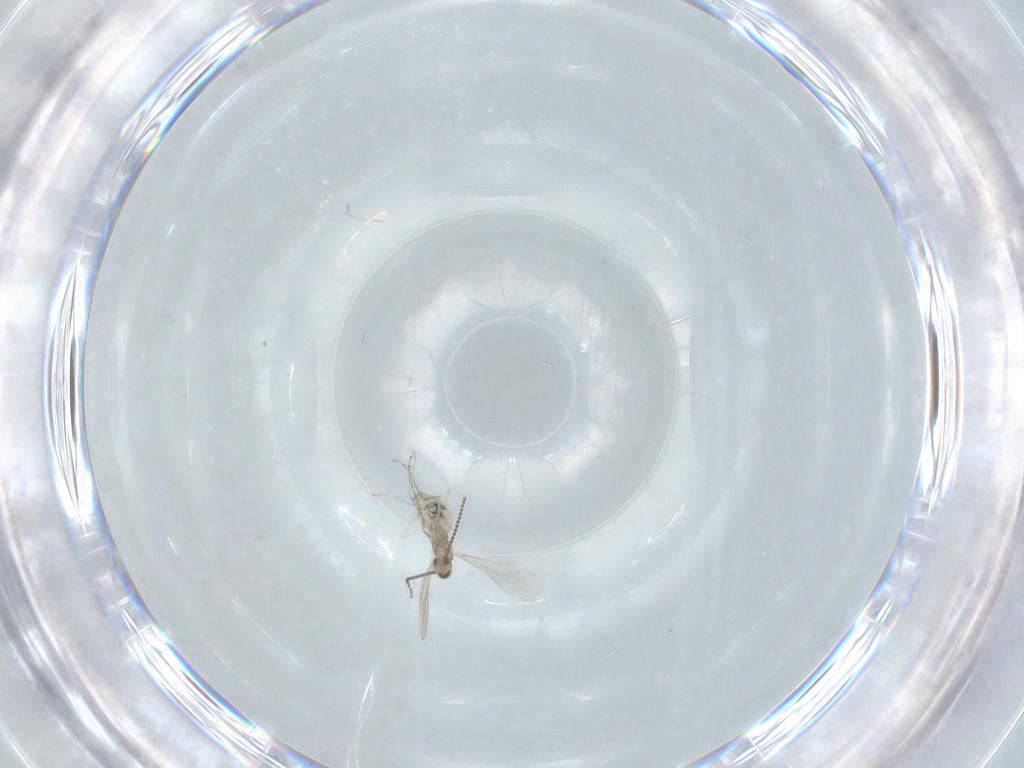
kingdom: Animalia
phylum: Arthropoda
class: Insecta
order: Diptera
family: Cecidomyiidae
